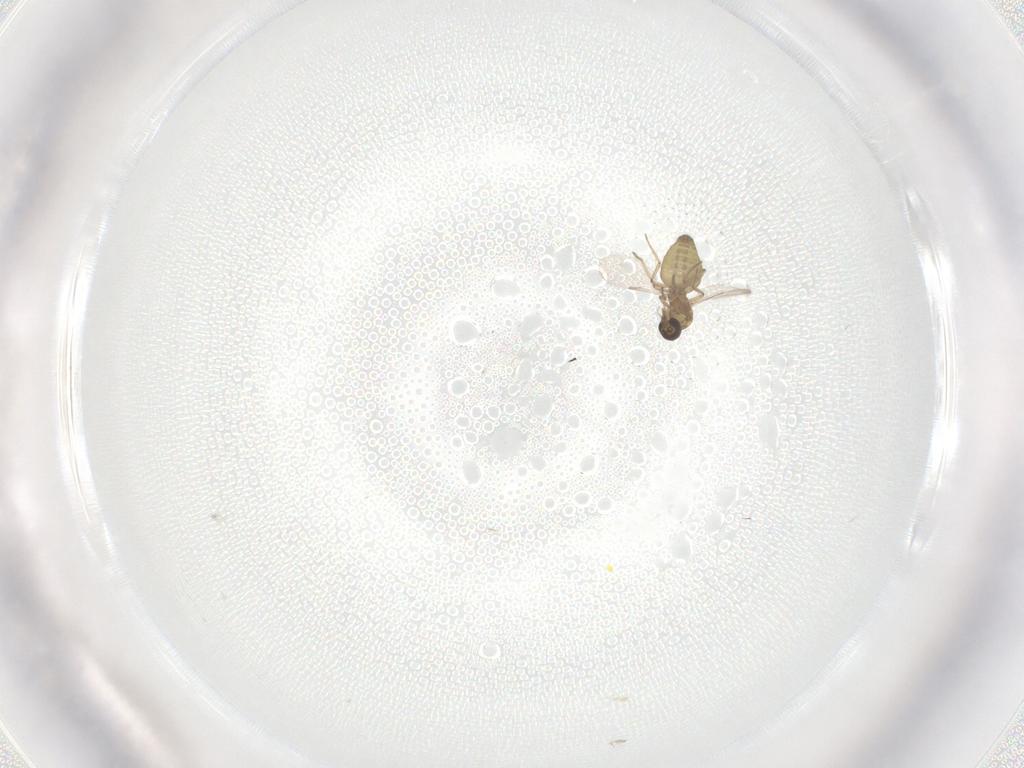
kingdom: Animalia
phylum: Arthropoda
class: Insecta
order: Diptera
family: Ceratopogonidae
